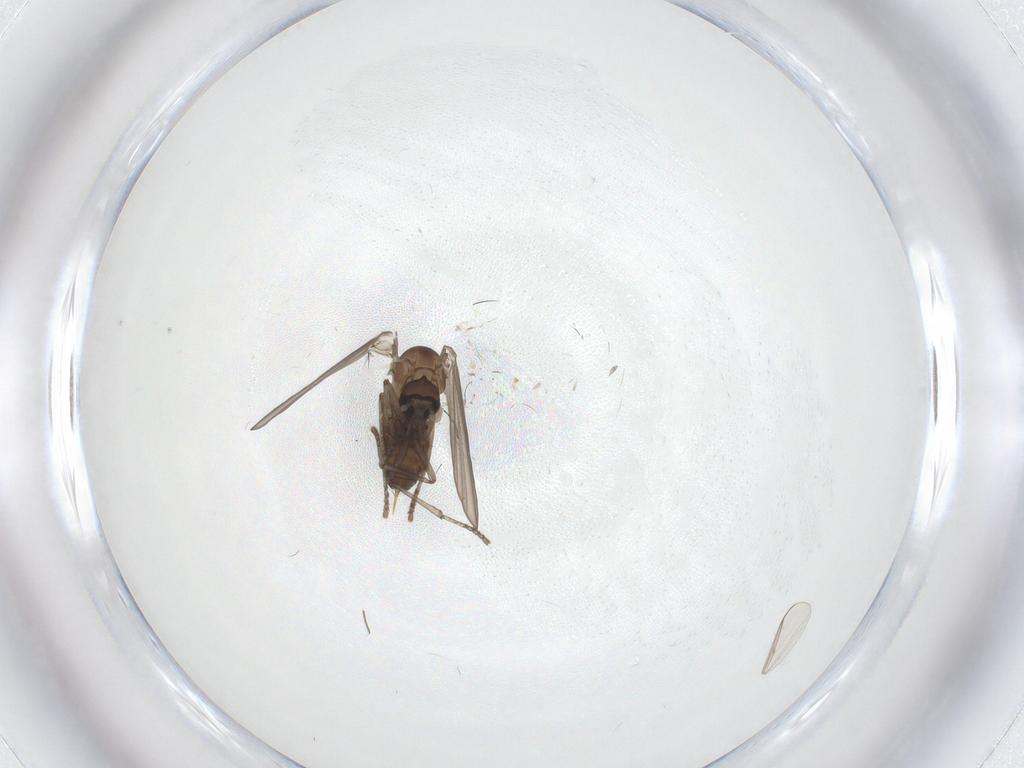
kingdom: Animalia
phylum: Arthropoda
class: Insecta
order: Diptera
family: Psychodidae
